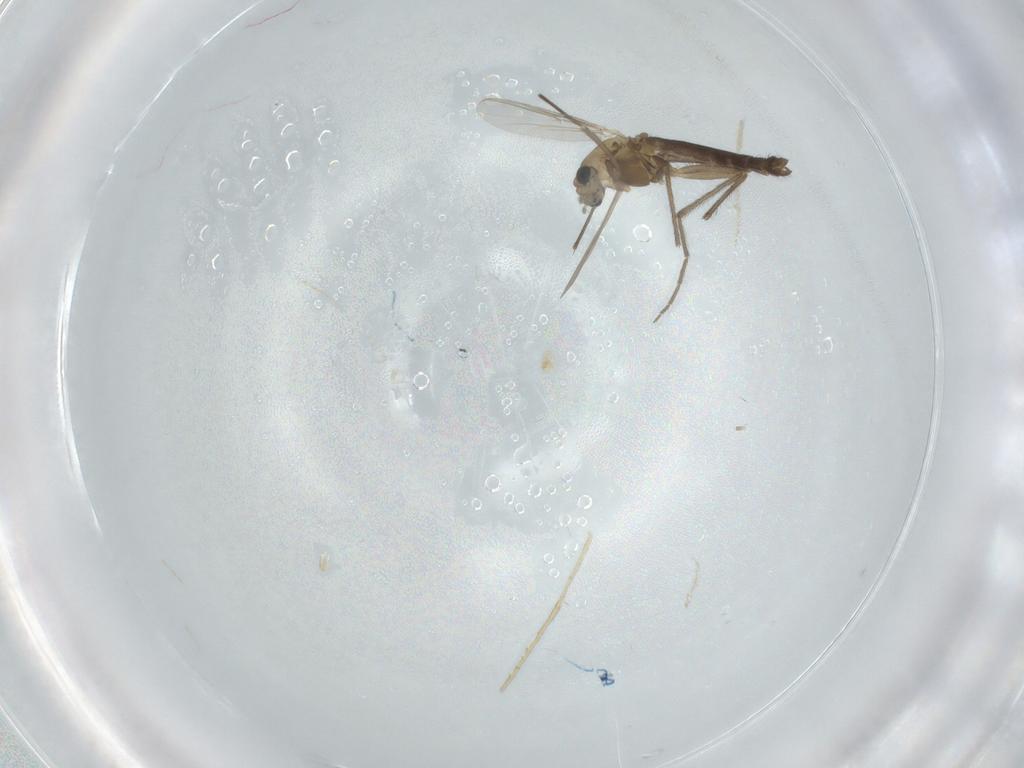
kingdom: Animalia
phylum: Arthropoda
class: Insecta
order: Diptera
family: Chironomidae
